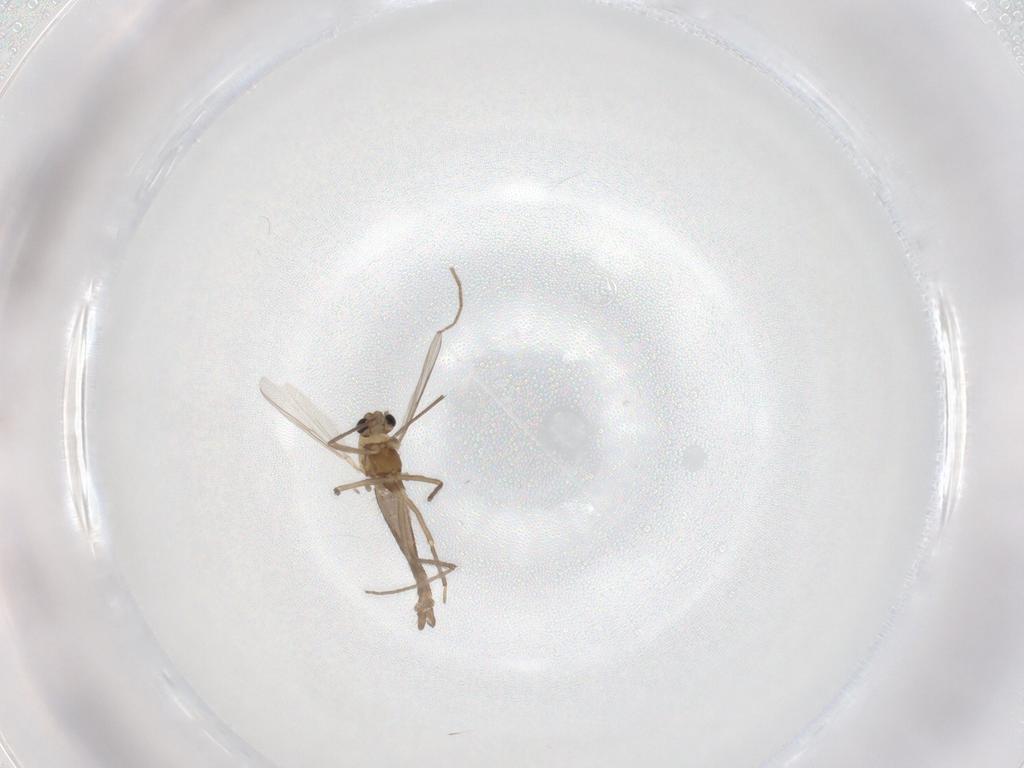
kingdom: Animalia
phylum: Arthropoda
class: Insecta
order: Diptera
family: Chironomidae
